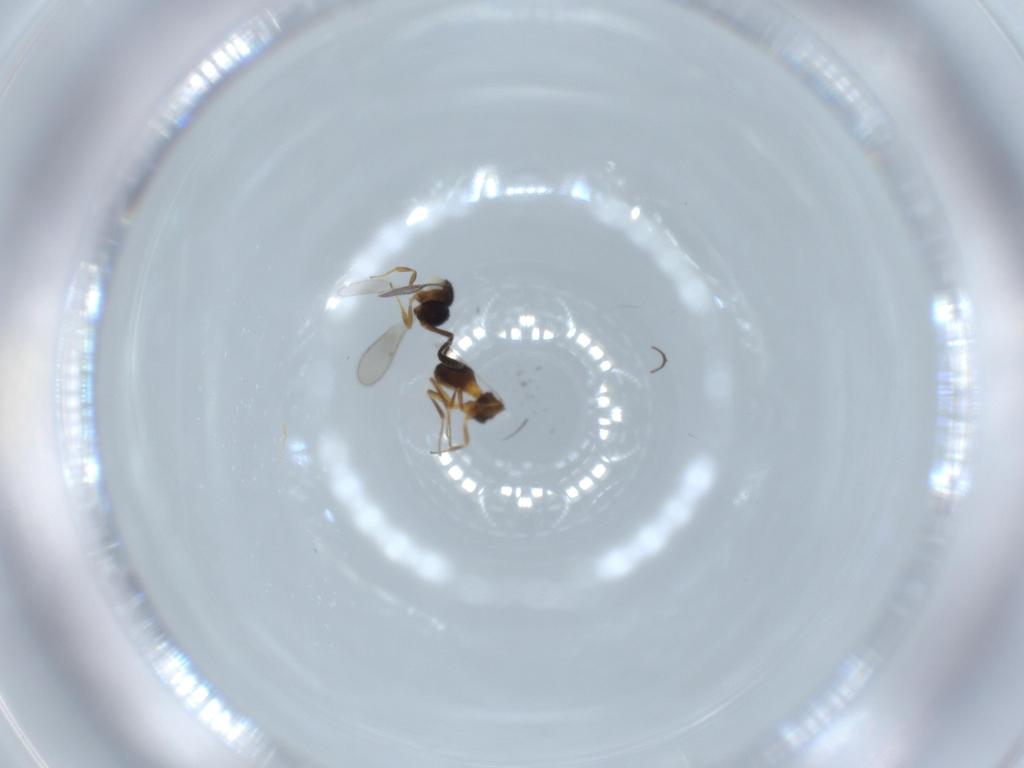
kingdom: Animalia
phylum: Arthropoda
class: Insecta
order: Hymenoptera
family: Scelionidae
